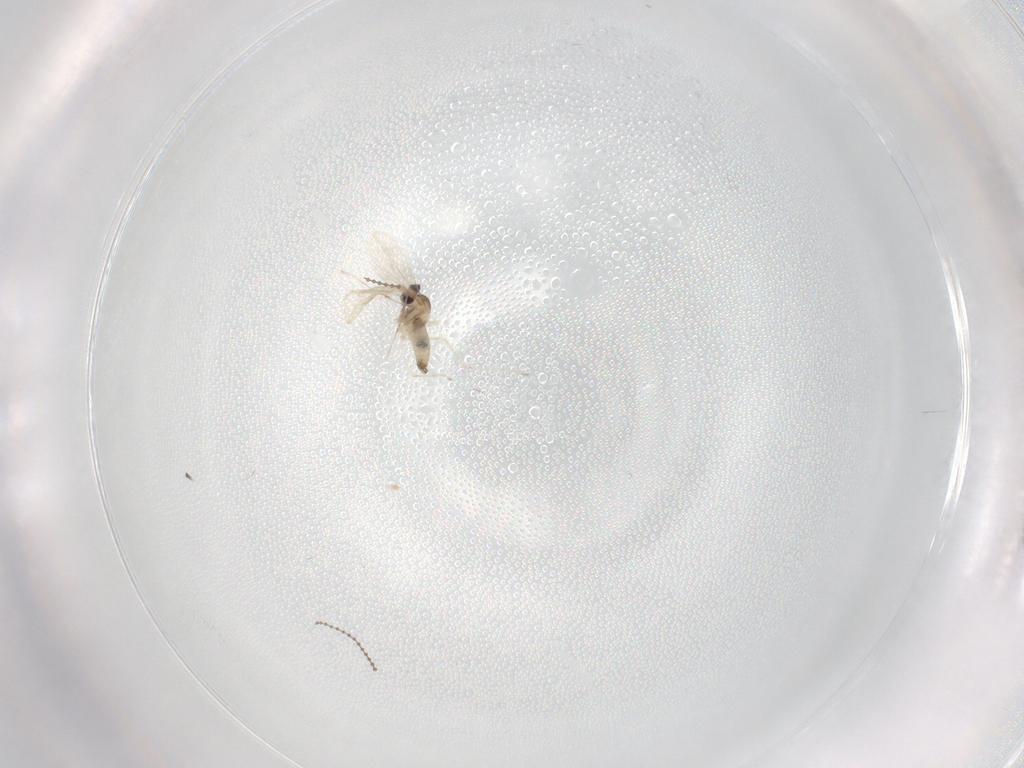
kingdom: Animalia
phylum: Arthropoda
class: Insecta
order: Diptera
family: Cecidomyiidae
